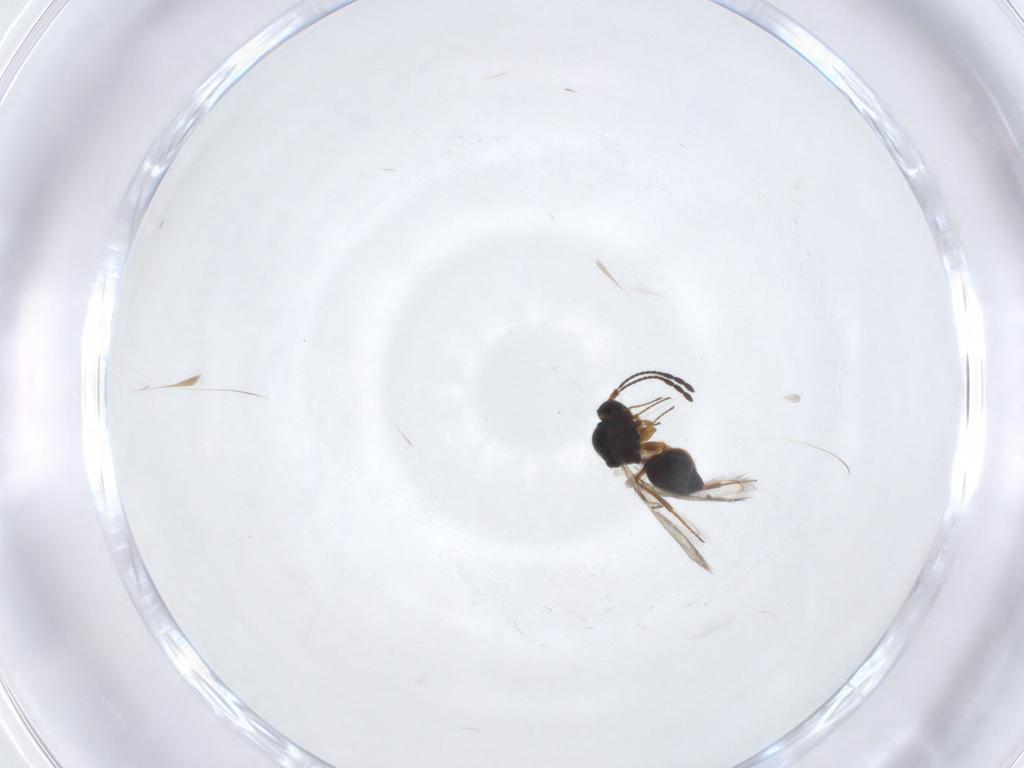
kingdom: Animalia
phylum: Arthropoda
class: Insecta
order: Hymenoptera
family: Figitidae
